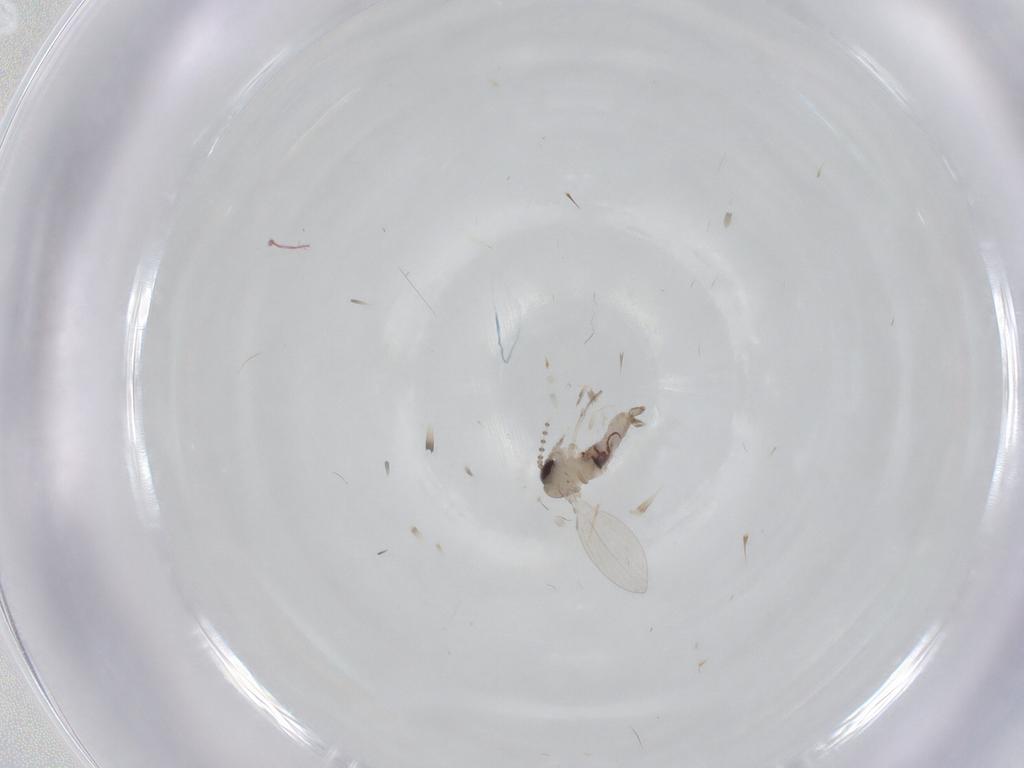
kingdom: Animalia
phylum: Arthropoda
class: Insecta
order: Diptera
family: Psychodidae
